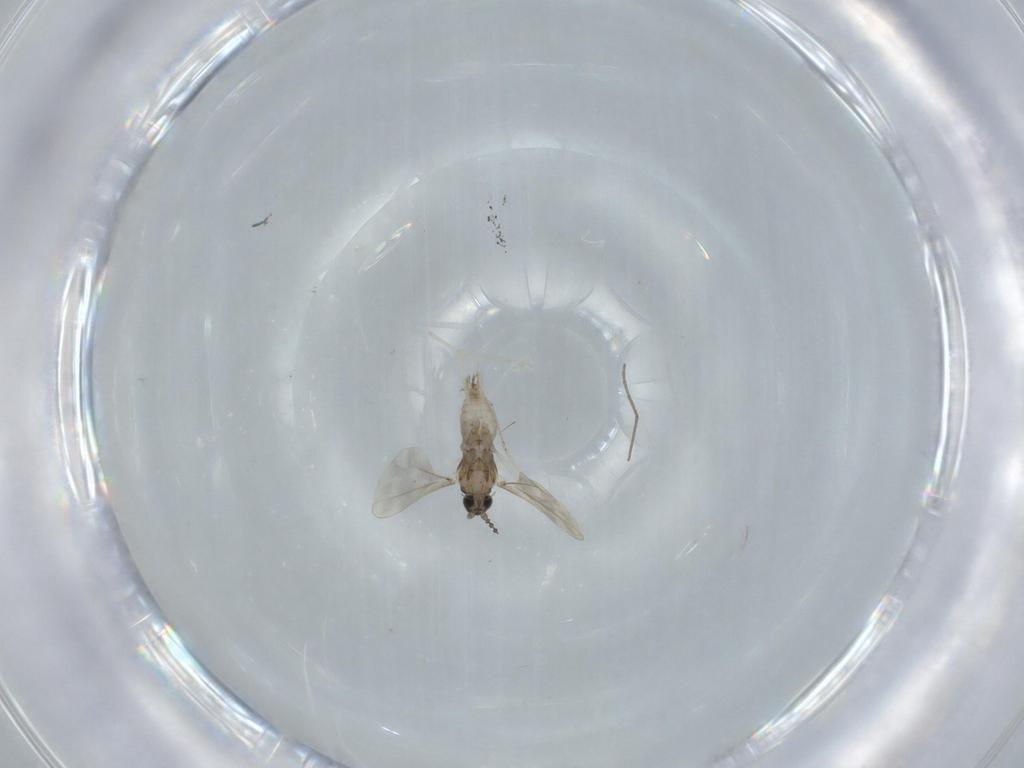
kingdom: Animalia
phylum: Arthropoda
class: Insecta
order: Diptera
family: Cecidomyiidae
